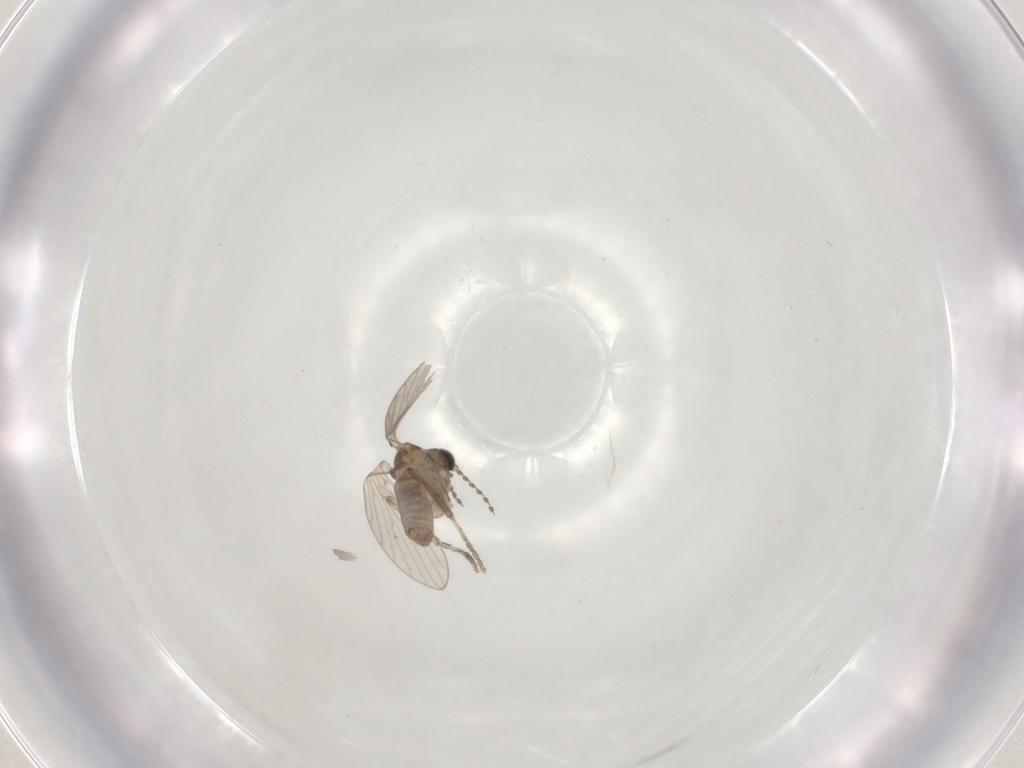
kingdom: Animalia
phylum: Arthropoda
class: Insecta
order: Diptera
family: Psychodidae
